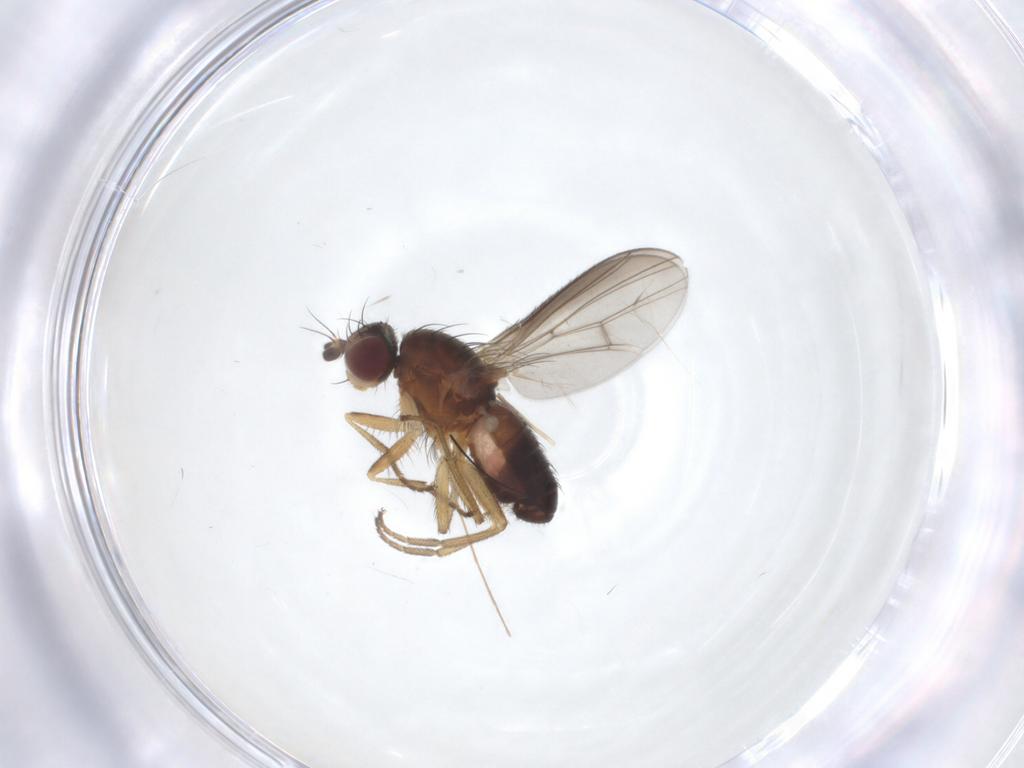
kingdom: Animalia
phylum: Arthropoda
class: Insecta
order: Diptera
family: Heleomyzidae
